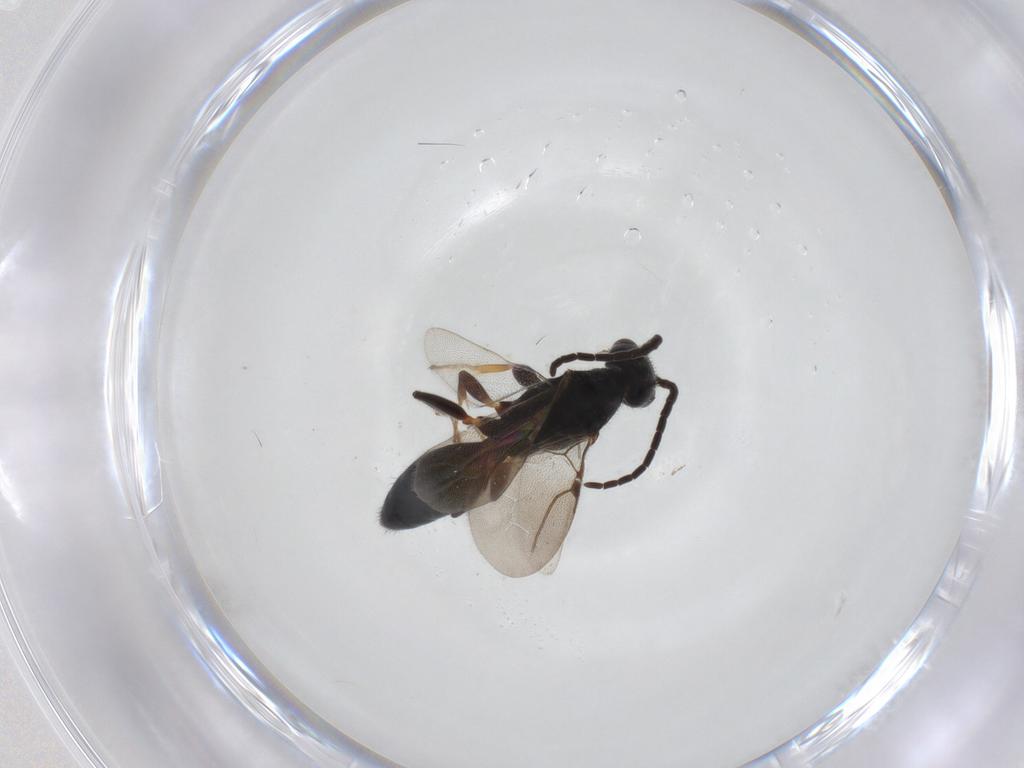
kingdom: Animalia
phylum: Arthropoda
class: Insecta
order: Hymenoptera
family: Bethylidae
